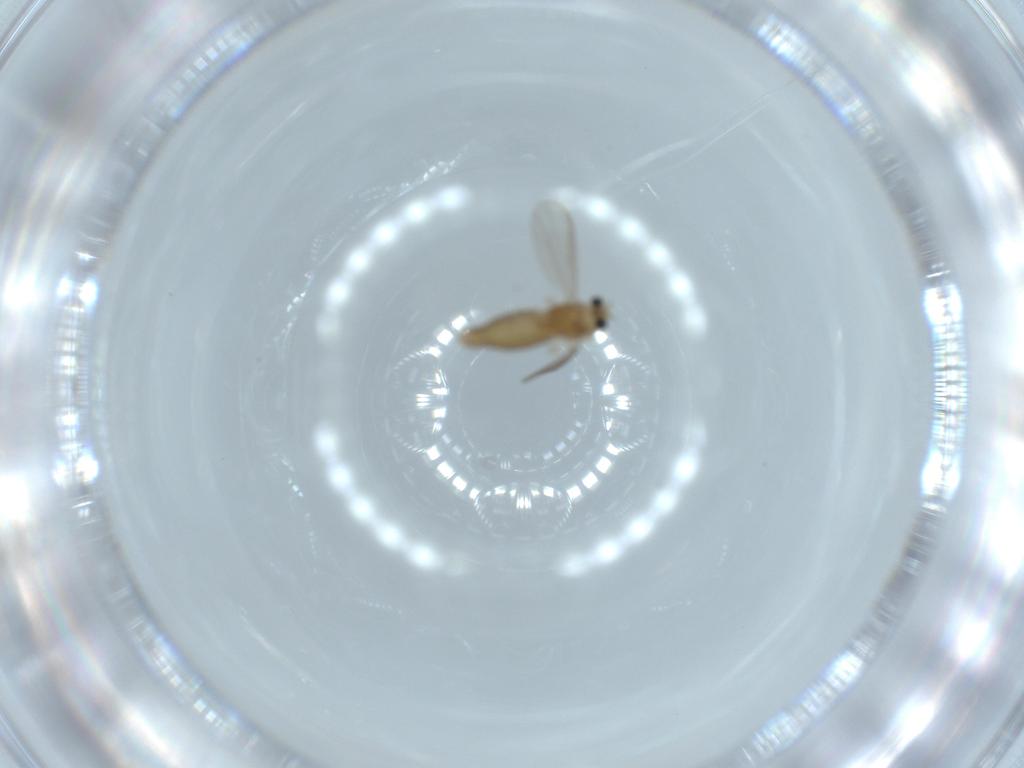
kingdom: Animalia
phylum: Arthropoda
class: Insecta
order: Diptera
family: Chironomidae
